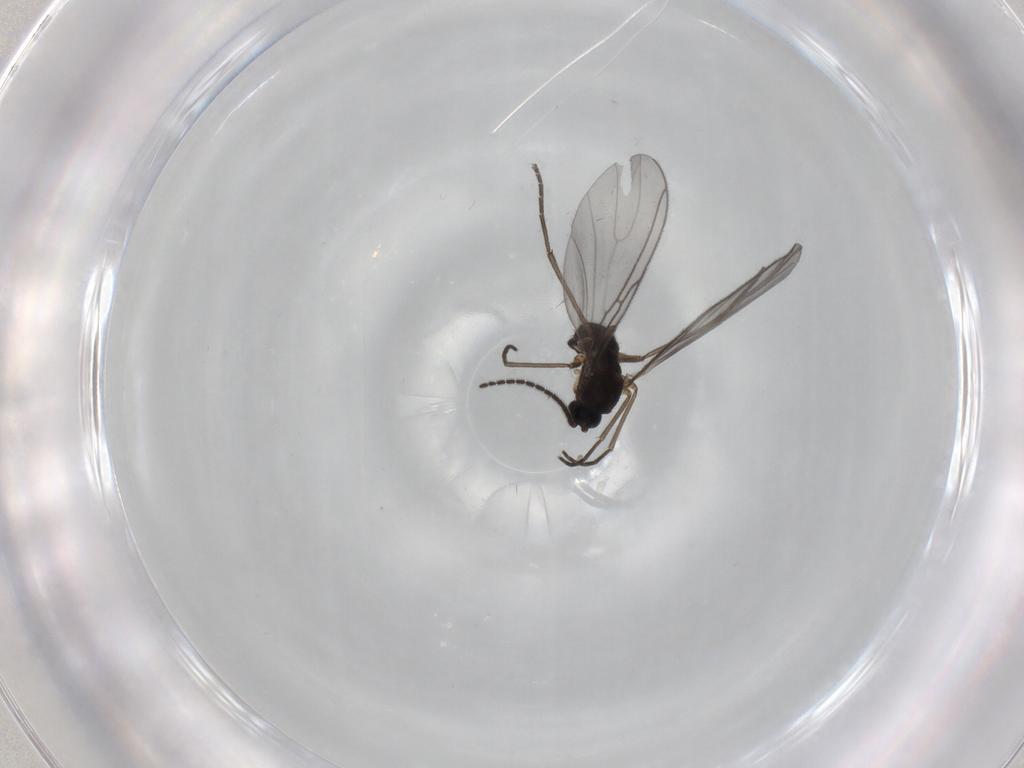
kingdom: Animalia
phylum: Arthropoda
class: Insecta
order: Diptera
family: Sciaridae
